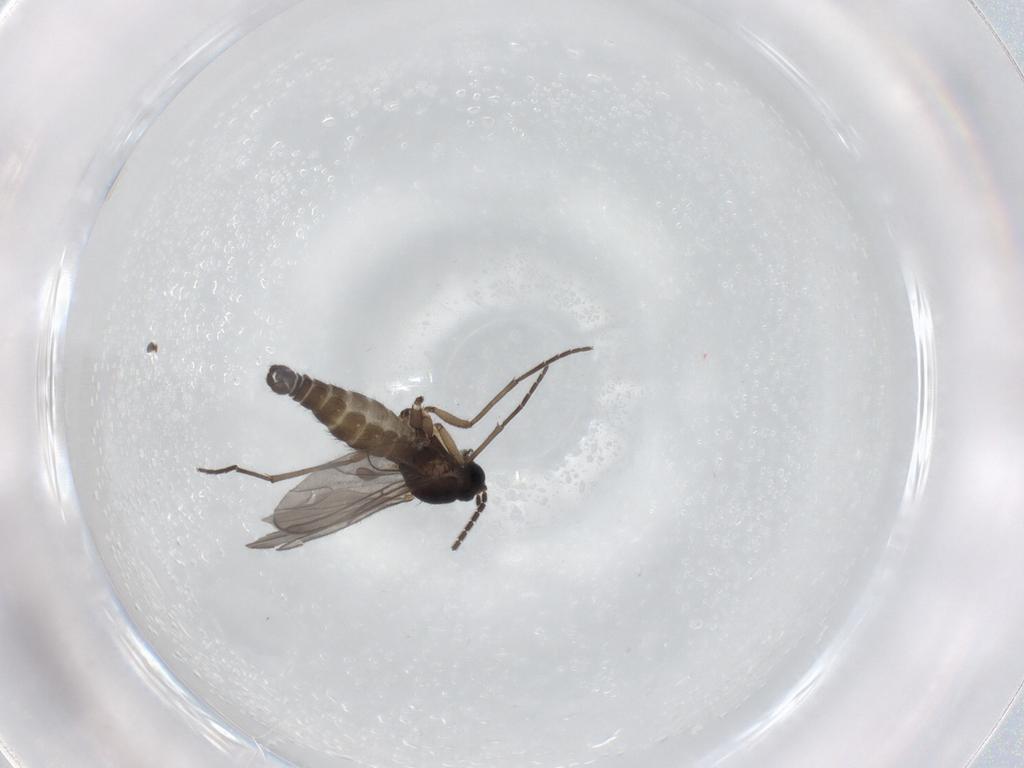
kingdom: Animalia
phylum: Arthropoda
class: Insecta
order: Diptera
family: Sciaridae
